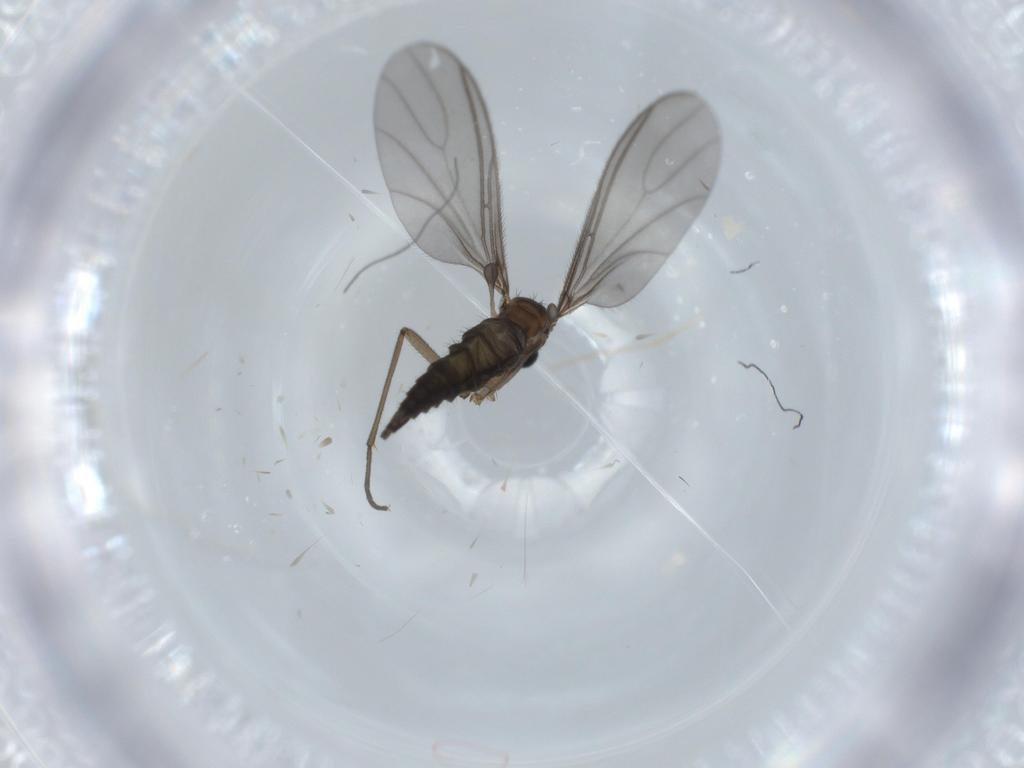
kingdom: Animalia
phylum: Arthropoda
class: Insecta
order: Diptera
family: Sciaridae
